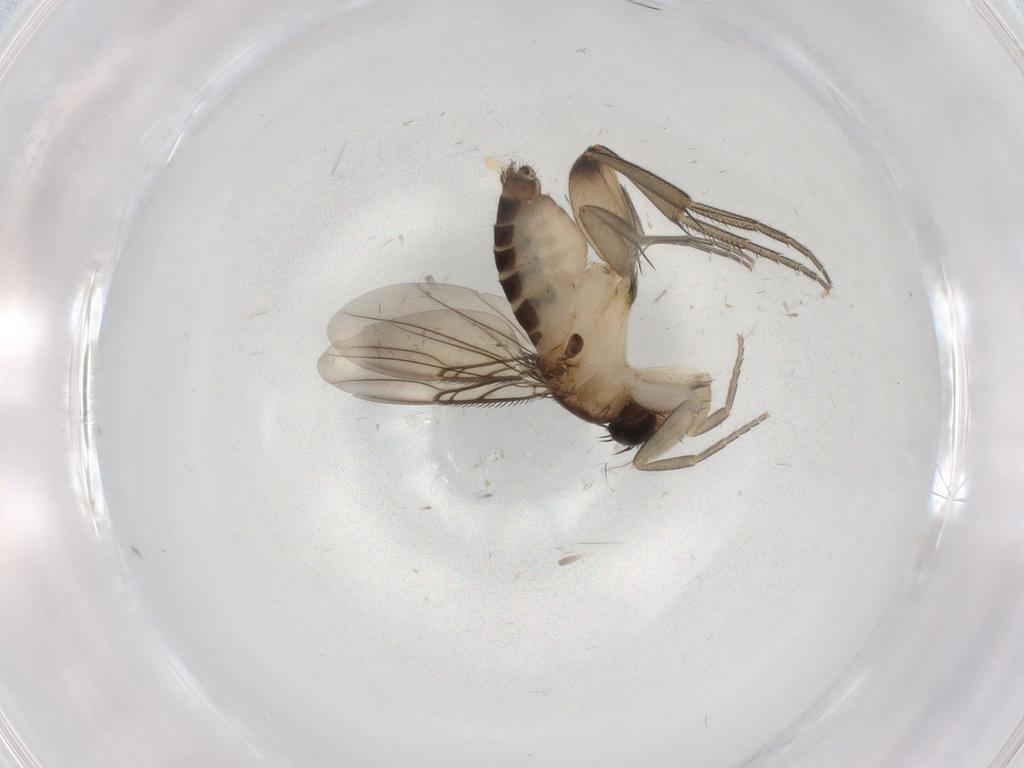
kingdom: Animalia
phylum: Arthropoda
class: Insecta
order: Diptera
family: Phoridae
